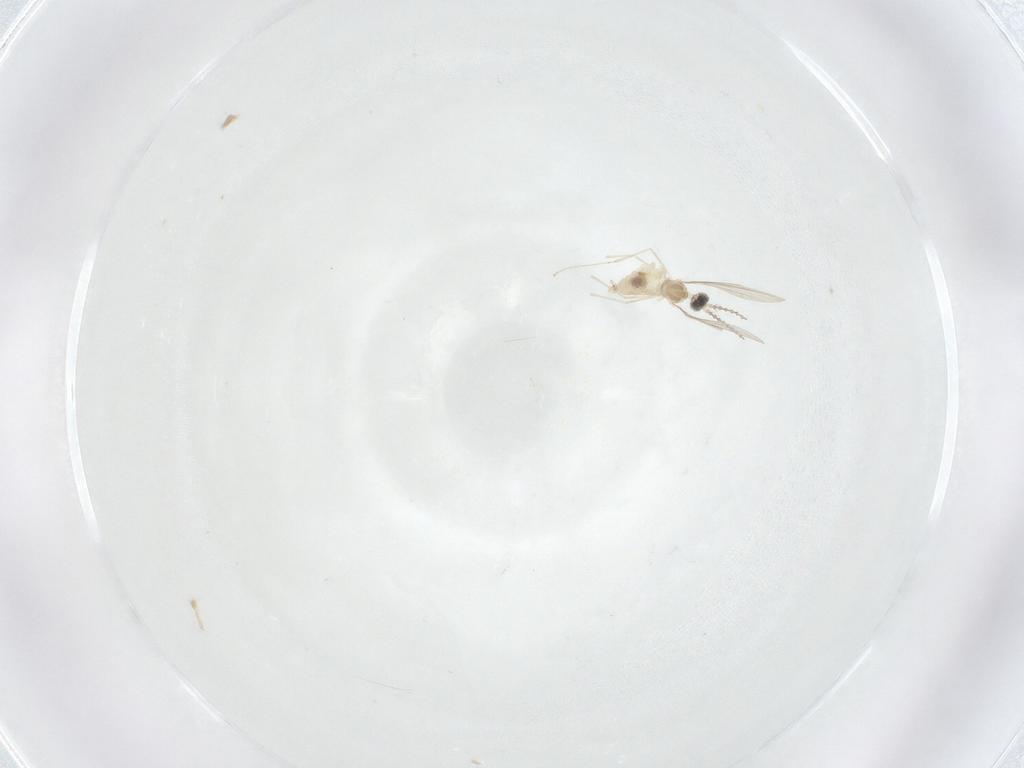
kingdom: Animalia
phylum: Arthropoda
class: Insecta
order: Diptera
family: Cecidomyiidae
